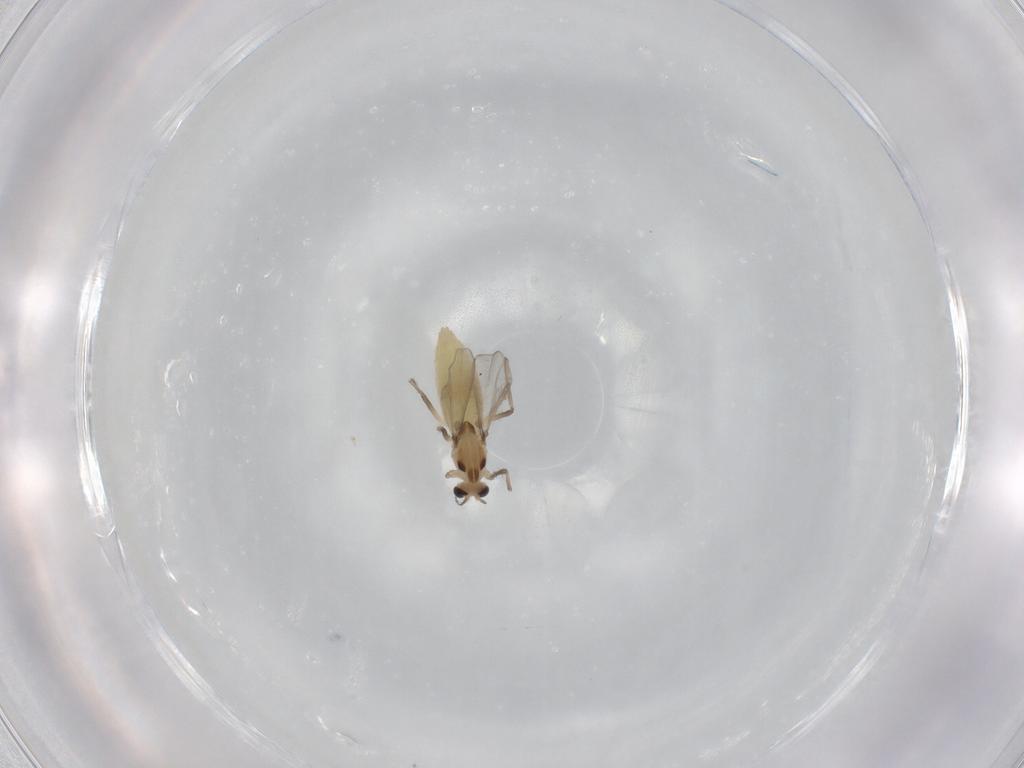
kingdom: Animalia
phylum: Arthropoda
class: Insecta
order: Diptera
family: Chironomidae
